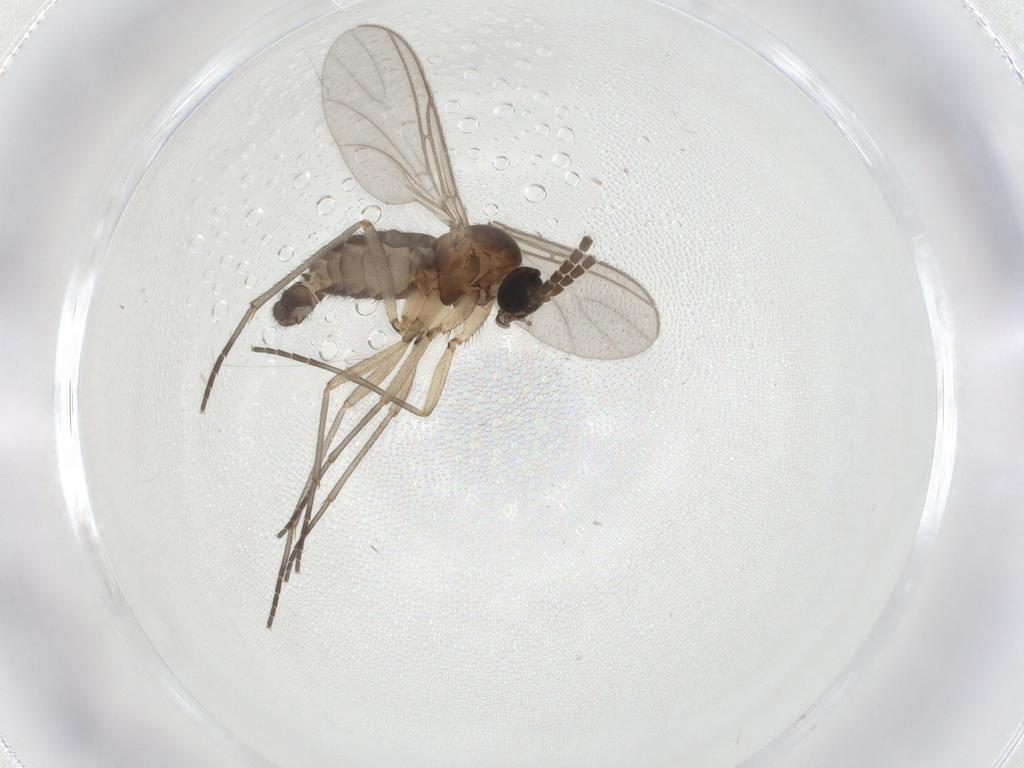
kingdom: Animalia
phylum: Arthropoda
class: Insecta
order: Diptera
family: Sciaridae
